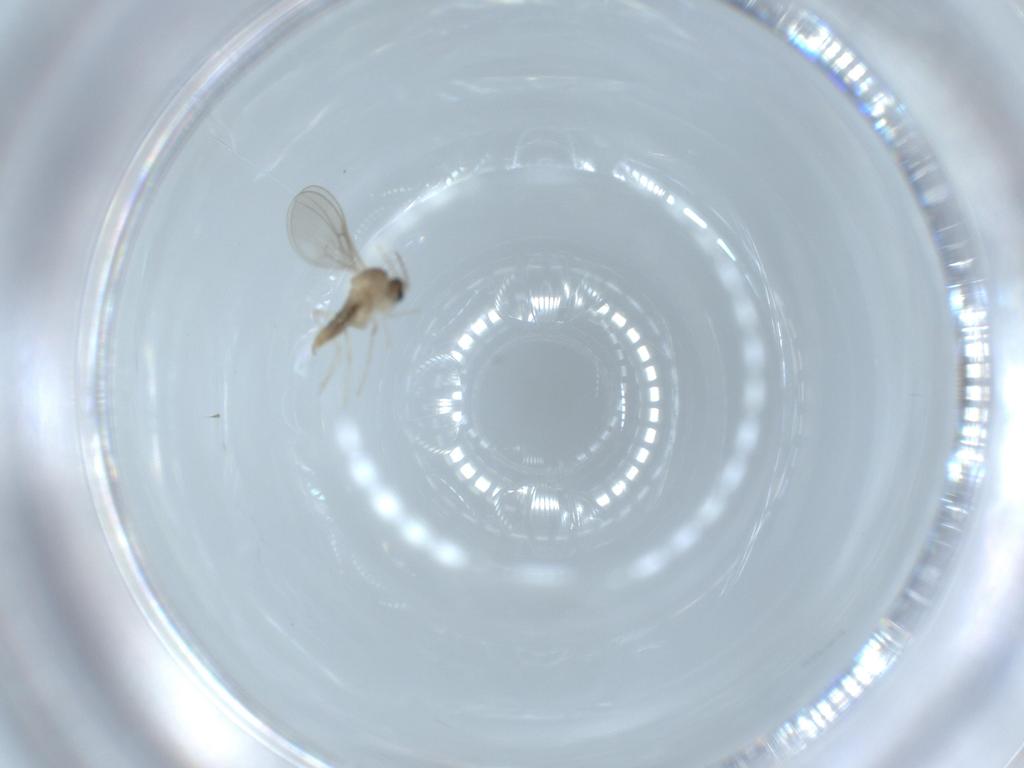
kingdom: Animalia
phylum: Arthropoda
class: Insecta
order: Diptera
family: Cecidomyiidae
